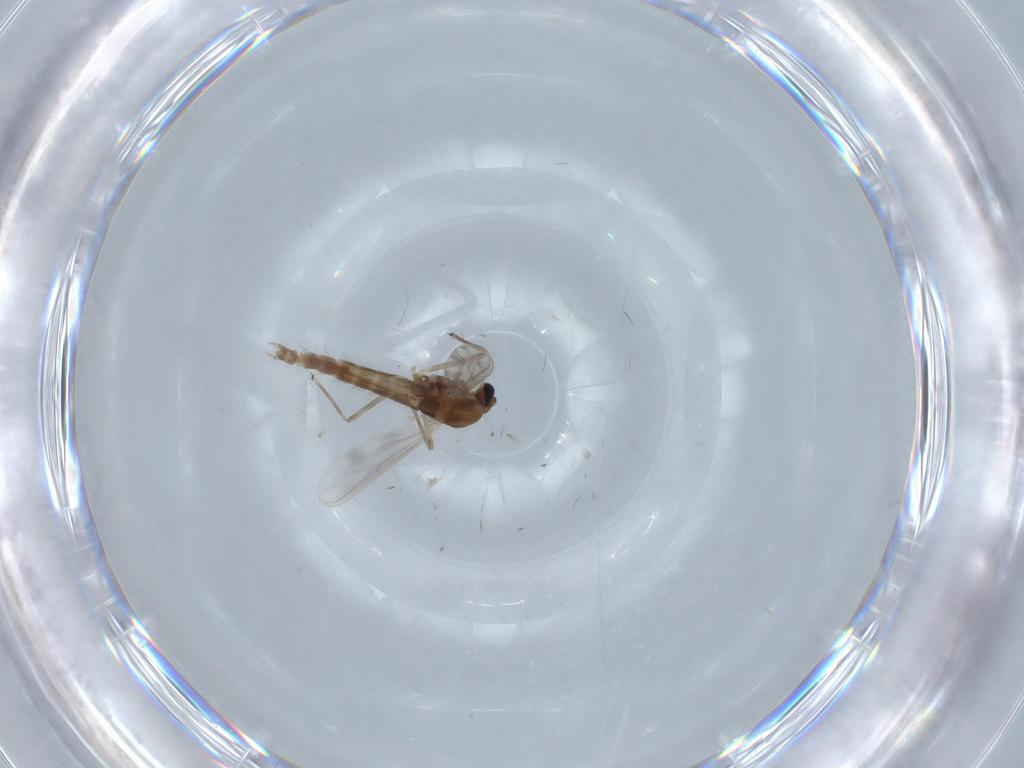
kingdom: Animalia
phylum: Arthropoda
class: Insecta
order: Diptera
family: Chironomidae
